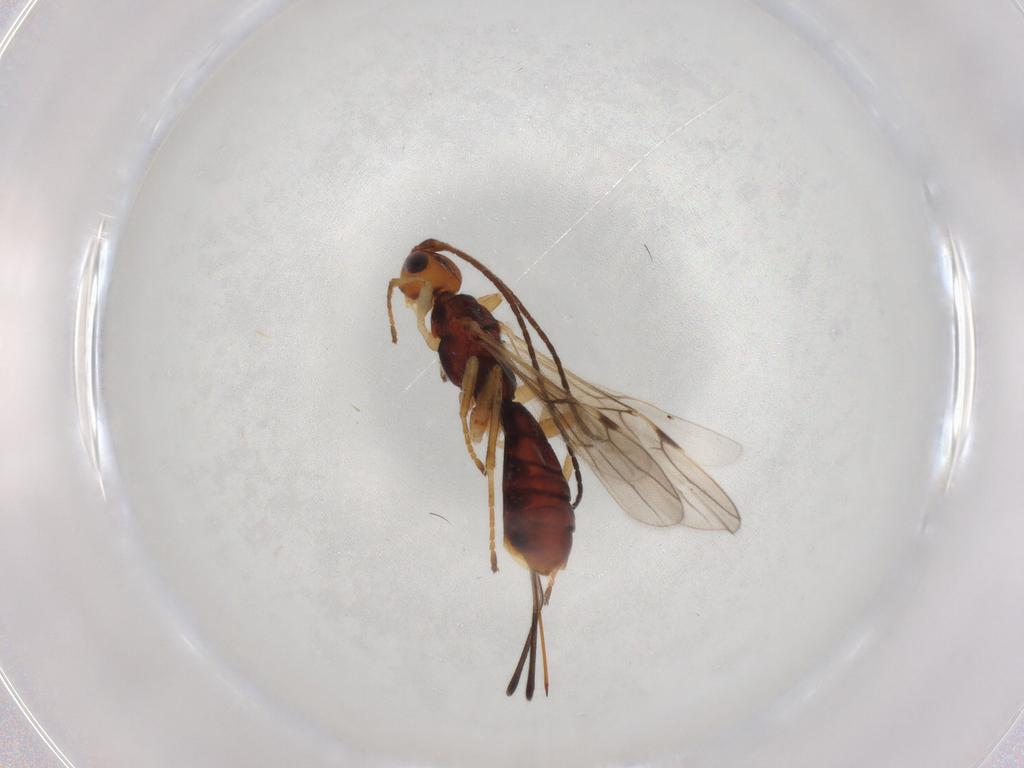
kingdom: Animalia
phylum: Arthropoda
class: Insecta
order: Hymenoptera
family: Braconidae
